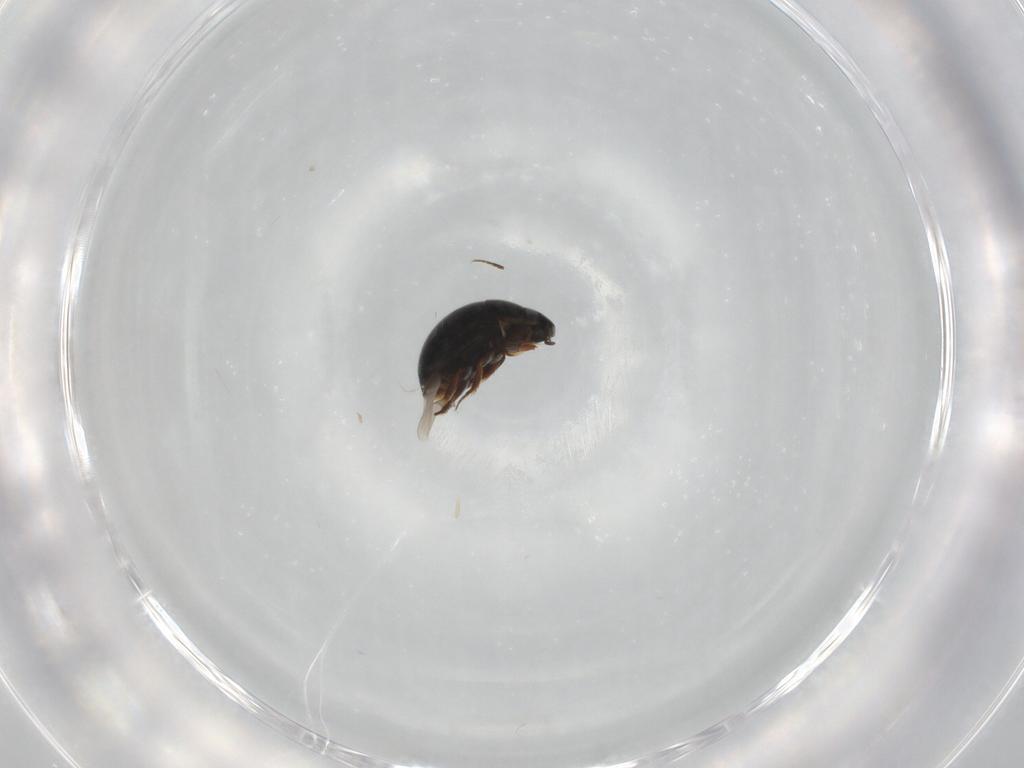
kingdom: Animalia
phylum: Arthropoda
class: Insecta
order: Coleoptera
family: Hydrophilidae
